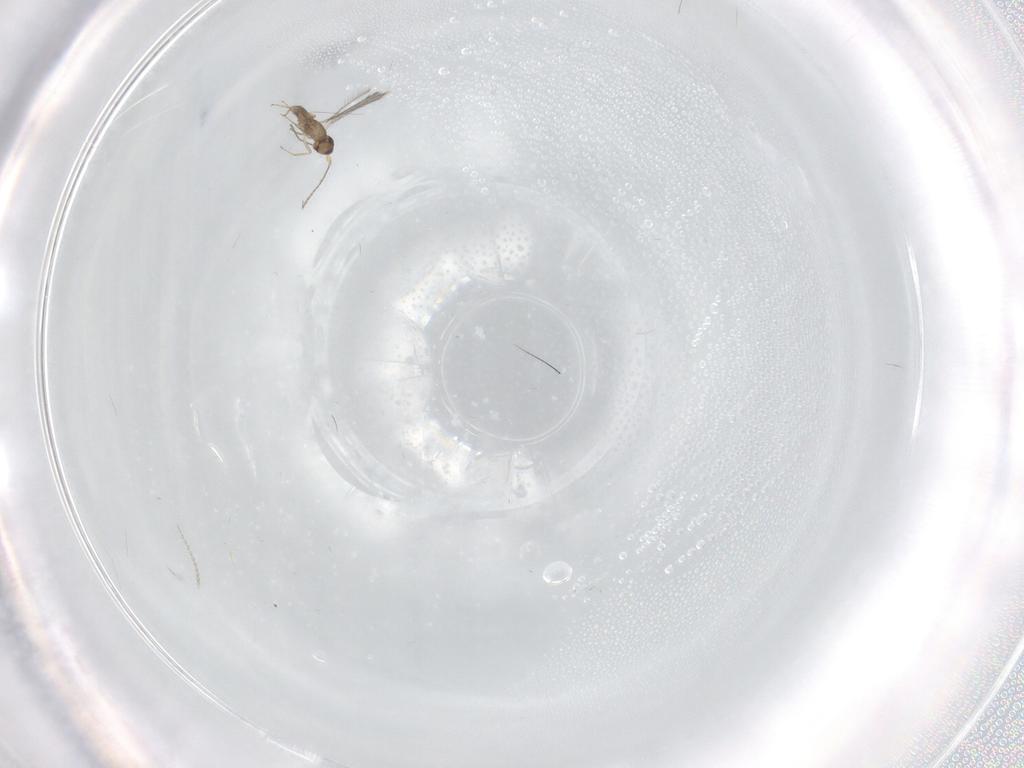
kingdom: Animalia
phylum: Arthropoda
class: Insecta
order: Hymenoptera
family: Mymaridae
